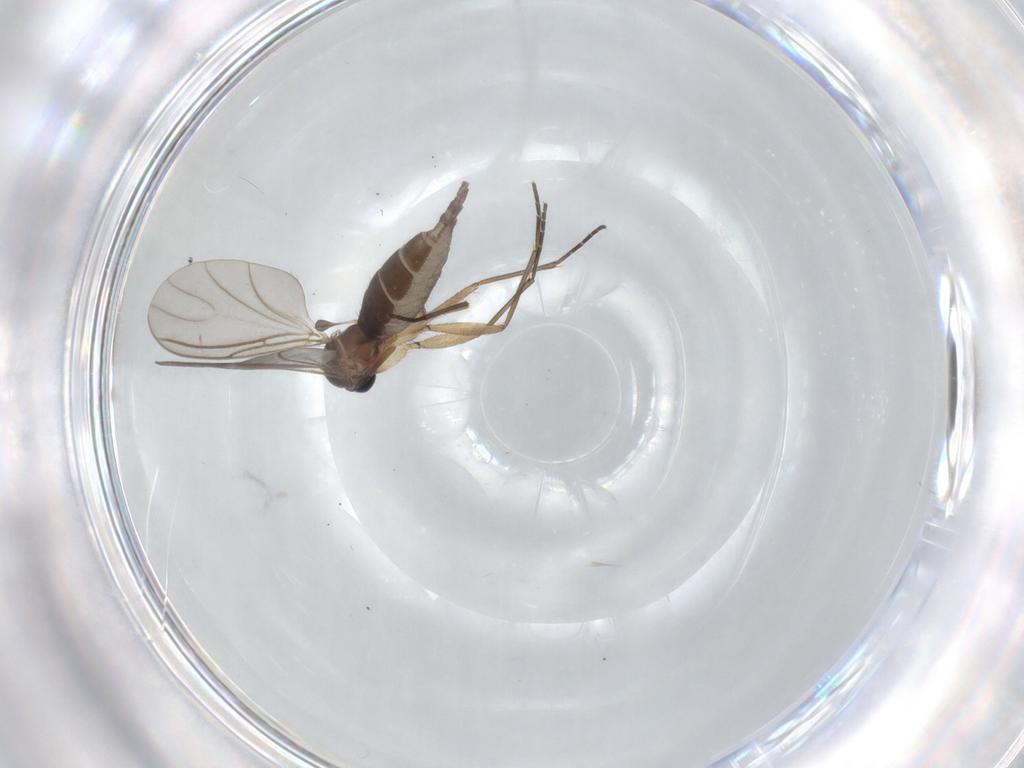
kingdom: Animalia
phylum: Arthropoda
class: Insecta
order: Diptera
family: Sciaridae
